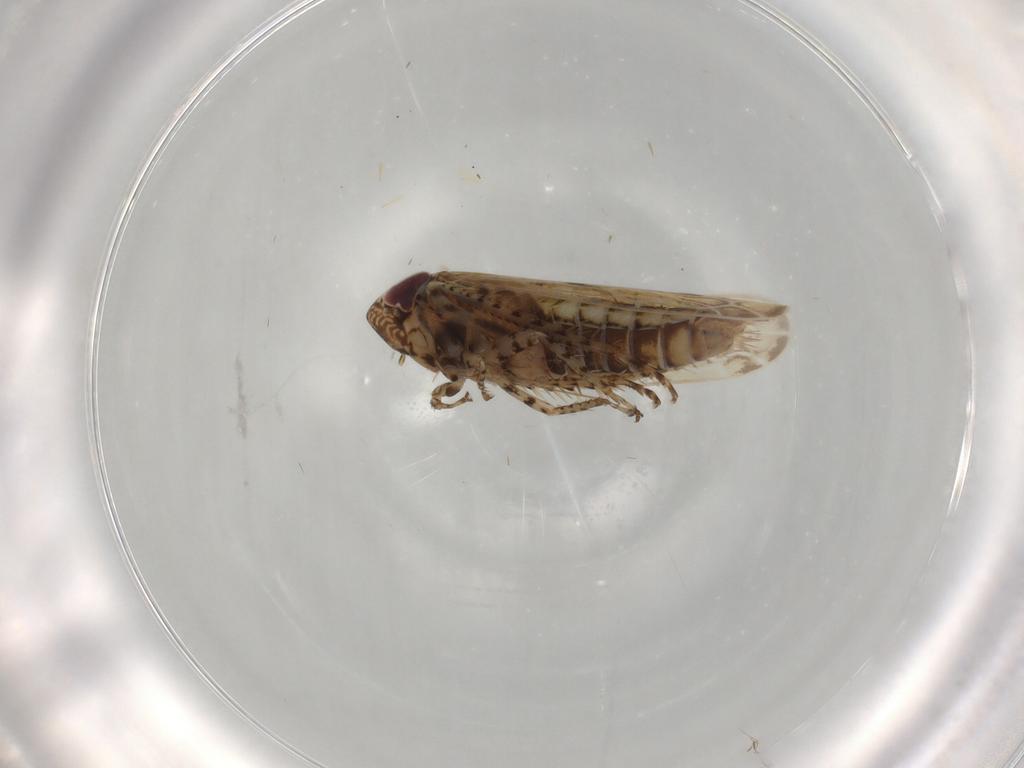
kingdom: Animalia
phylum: Arthropoda
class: Insecta
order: Hemiptera
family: Cicadellidae
